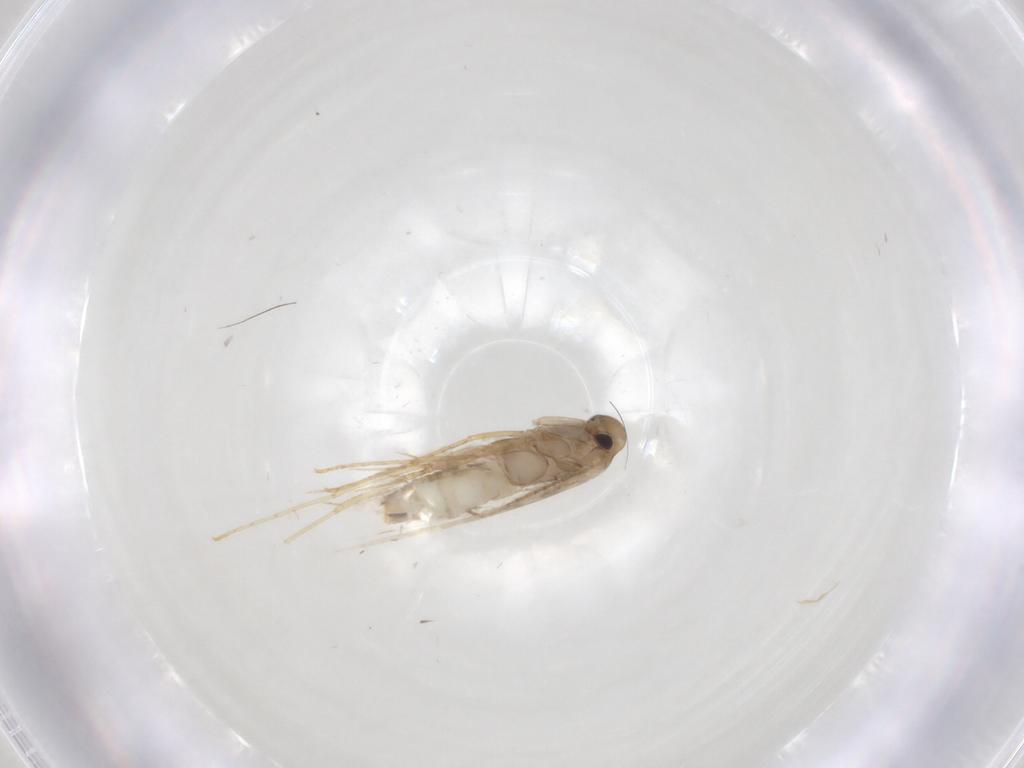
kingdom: Animalia
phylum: Arthropoda
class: Insecta
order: Lepidoptera
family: Gracillariidae
